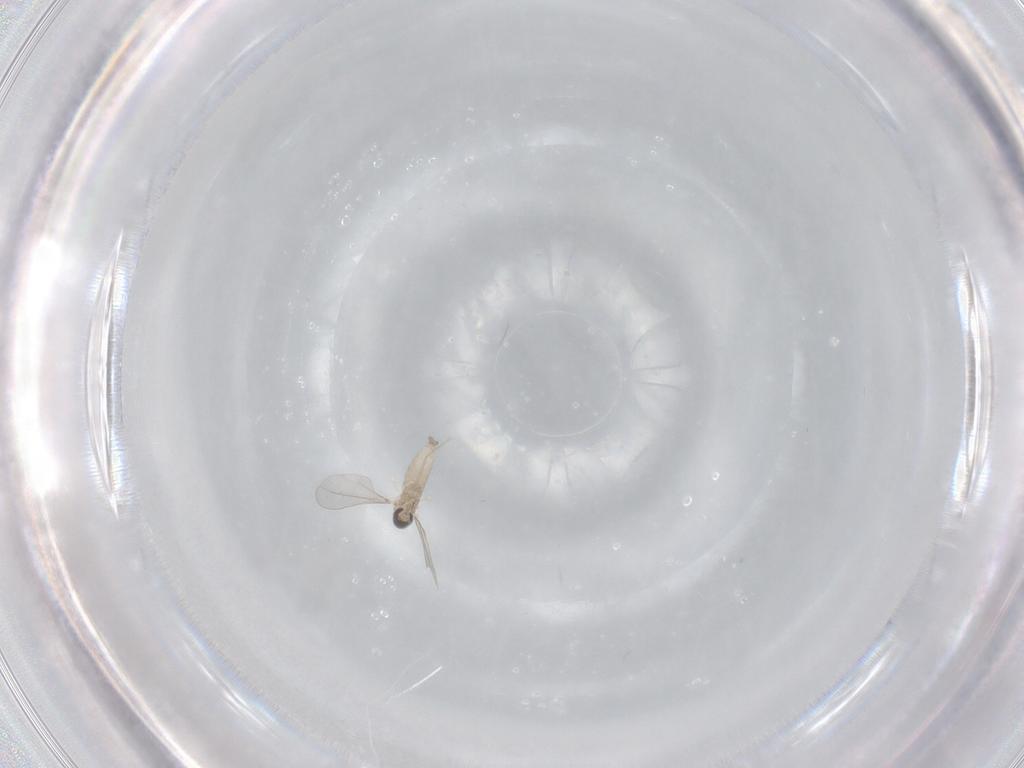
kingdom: Animalia
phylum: Arthropoda
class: Insecta
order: Diptera
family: Cecidomyiidae
